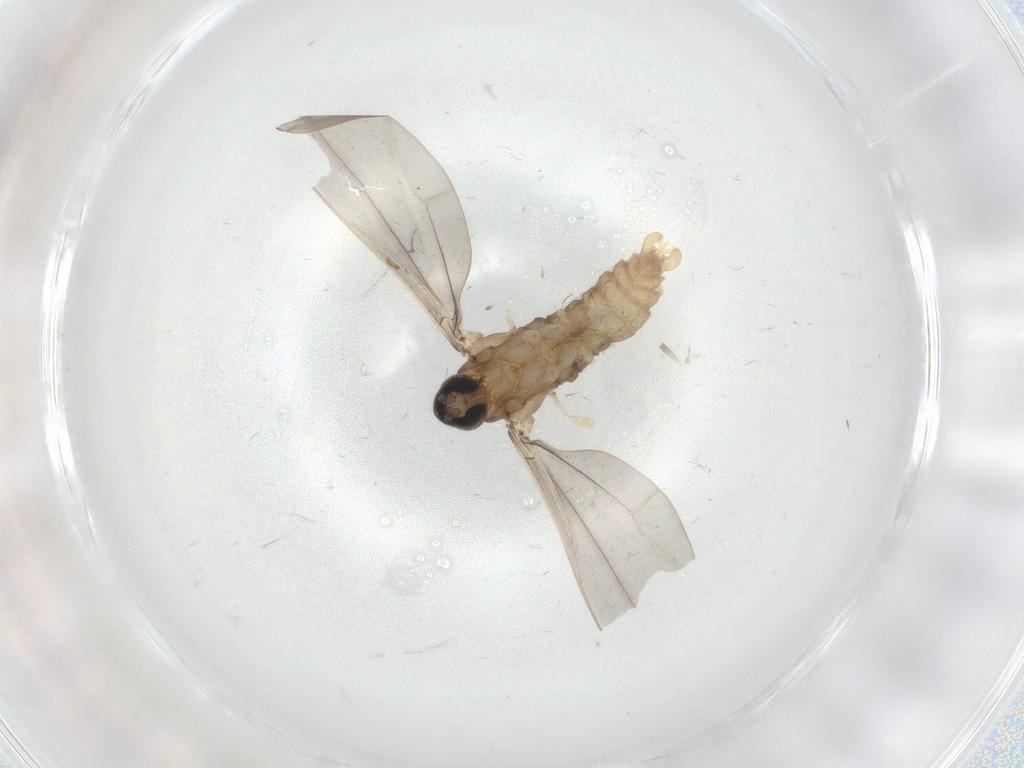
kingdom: Animalia
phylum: Arthropoda
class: Insecta
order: Diptera
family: Cecidomyiidae
